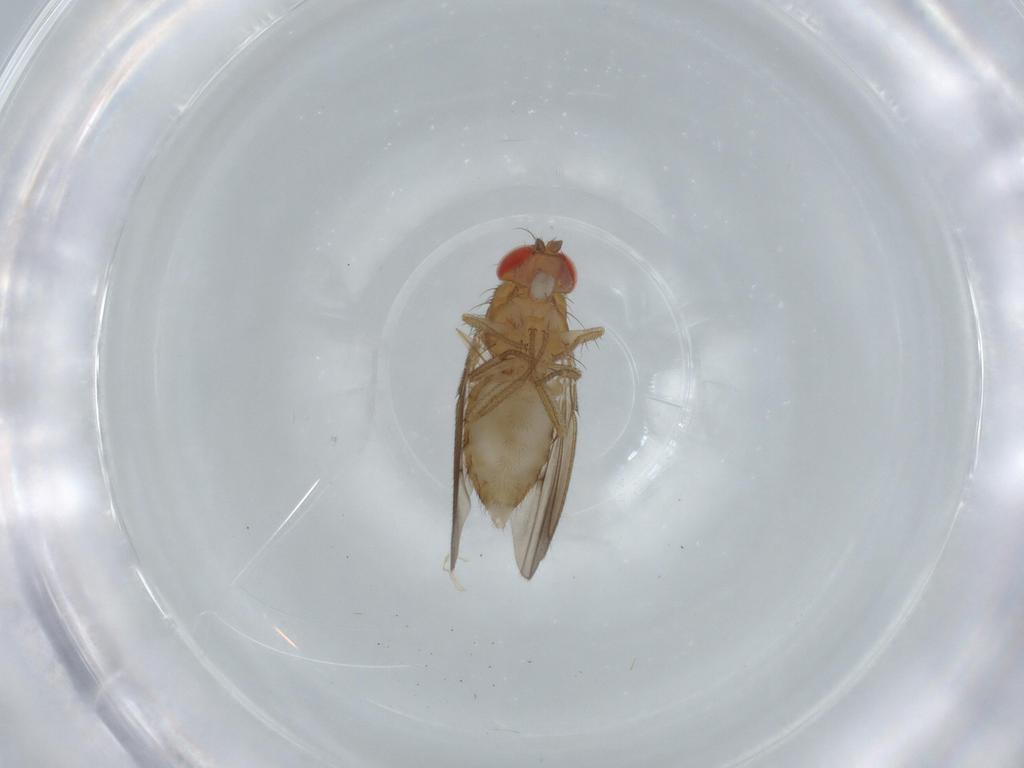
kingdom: Animalia
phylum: Arthropoda
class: Insecta
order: Diptera
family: Drosophilidae
